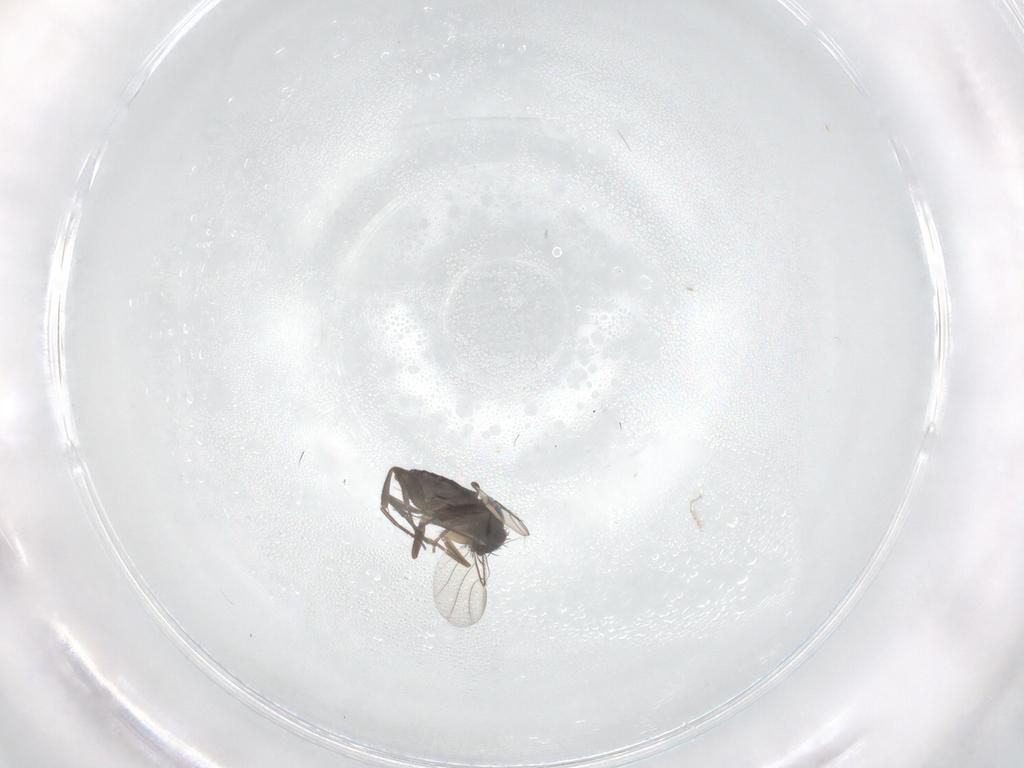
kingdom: Animalia
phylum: Arthropoda
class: Insecta
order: Diptera
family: Phoridae
